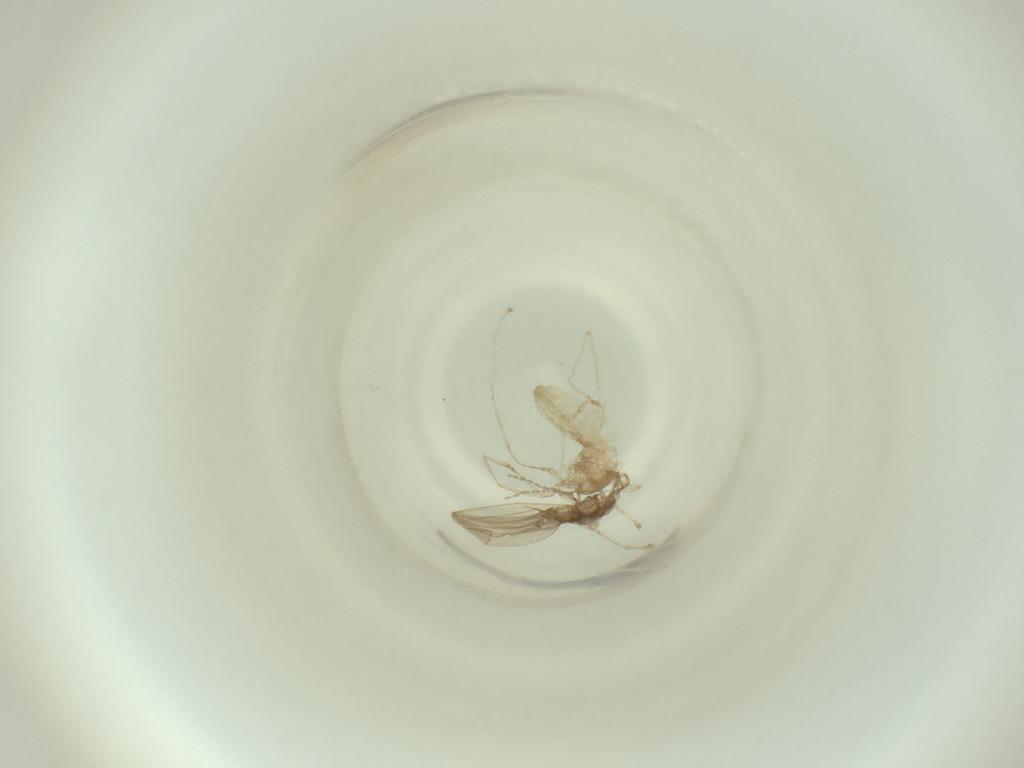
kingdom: Animalia
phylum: Arthropoda
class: Insecta
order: Diptera
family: Cecidomyiidae
